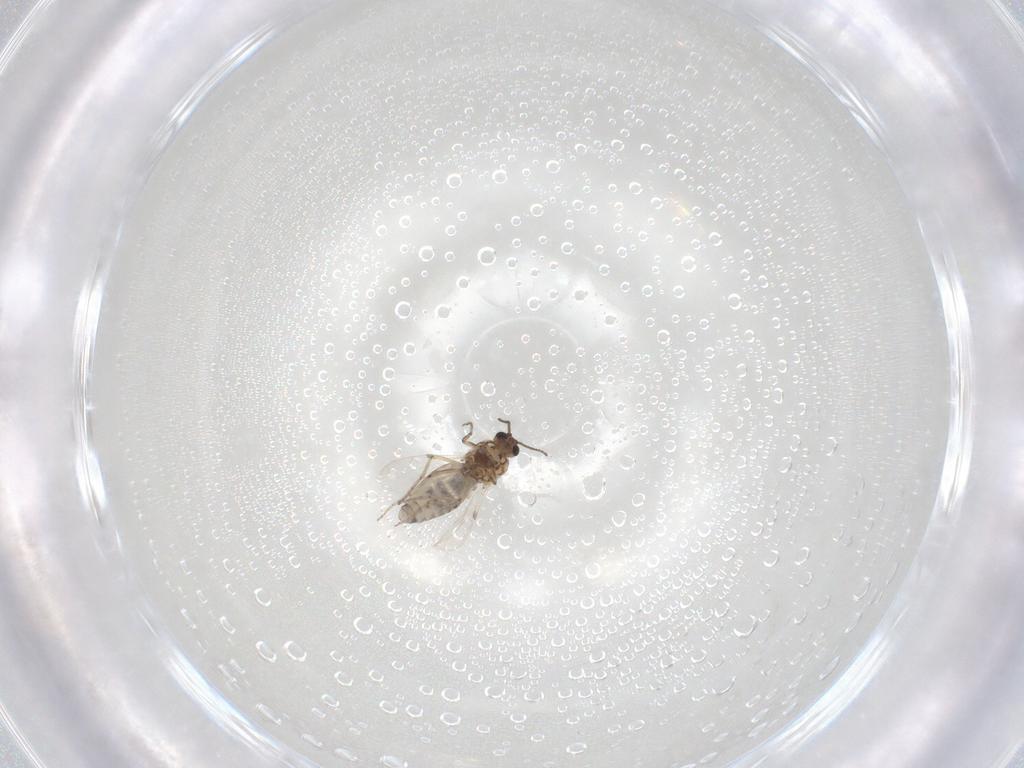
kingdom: Animalia
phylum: Arthropoda
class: Insecta
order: Diptera
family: Ceratopogonidae
